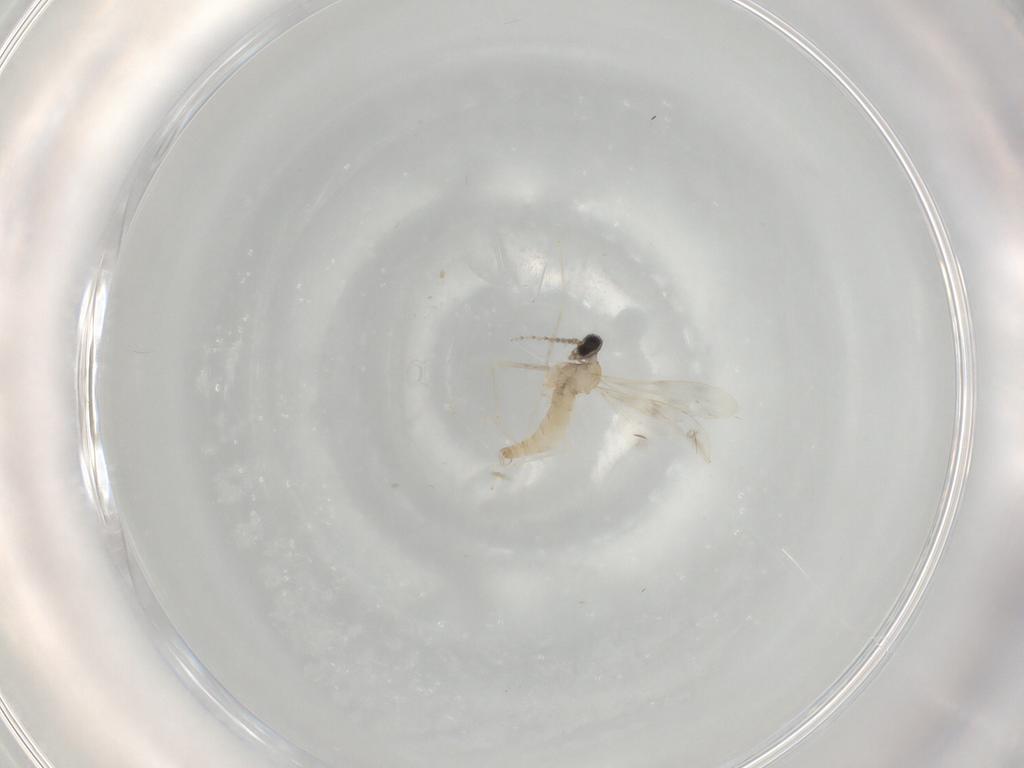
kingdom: Animalia
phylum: Arthropoda
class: Insecta
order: Diptera
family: Cecidomyiidae
